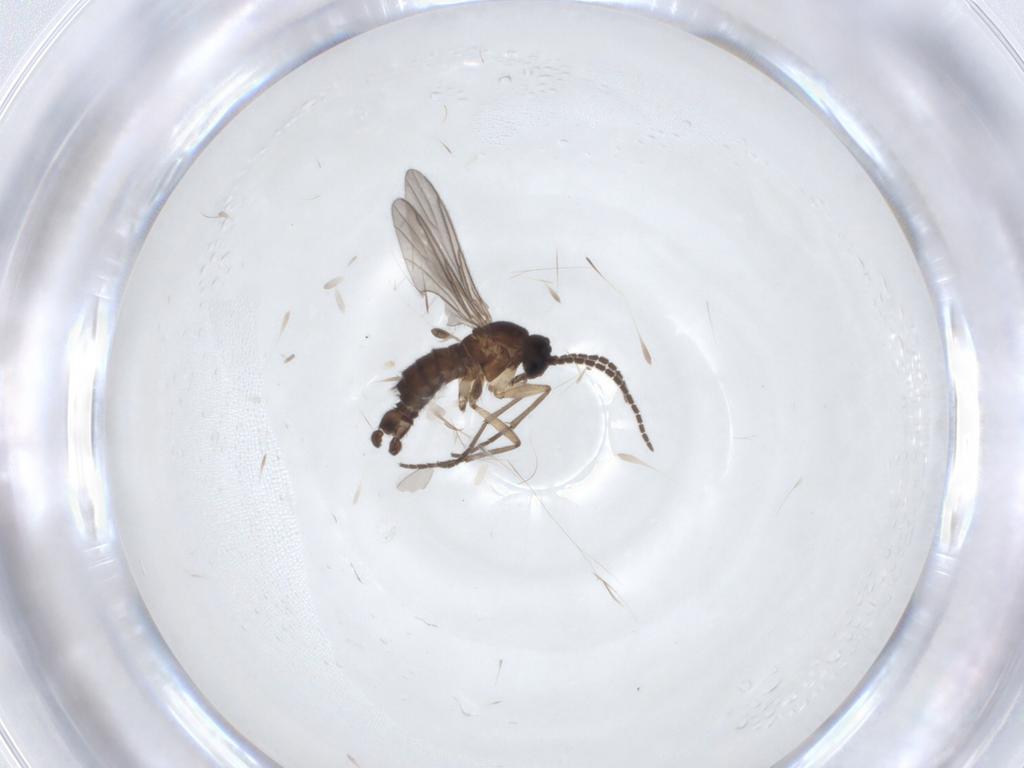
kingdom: Animalia
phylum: Arthropoda
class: Insecta
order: Diptera
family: Sciaridae
